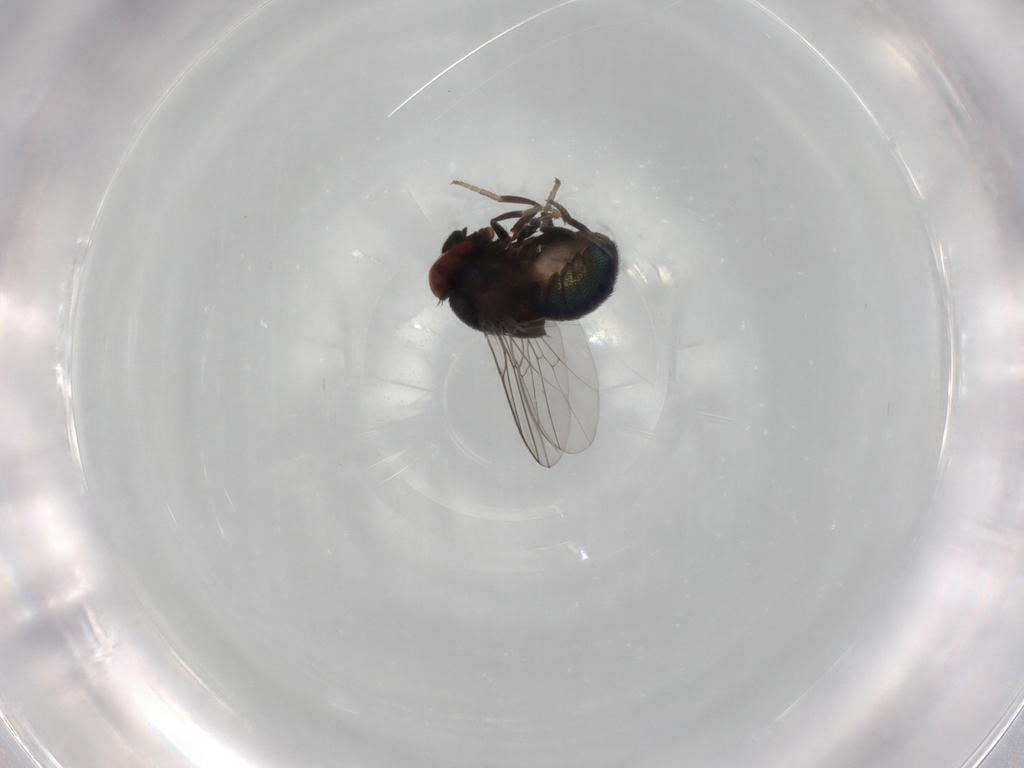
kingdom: Animalia
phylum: Arthropoda
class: Insecta
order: Diptera
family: Cryptochetidae
